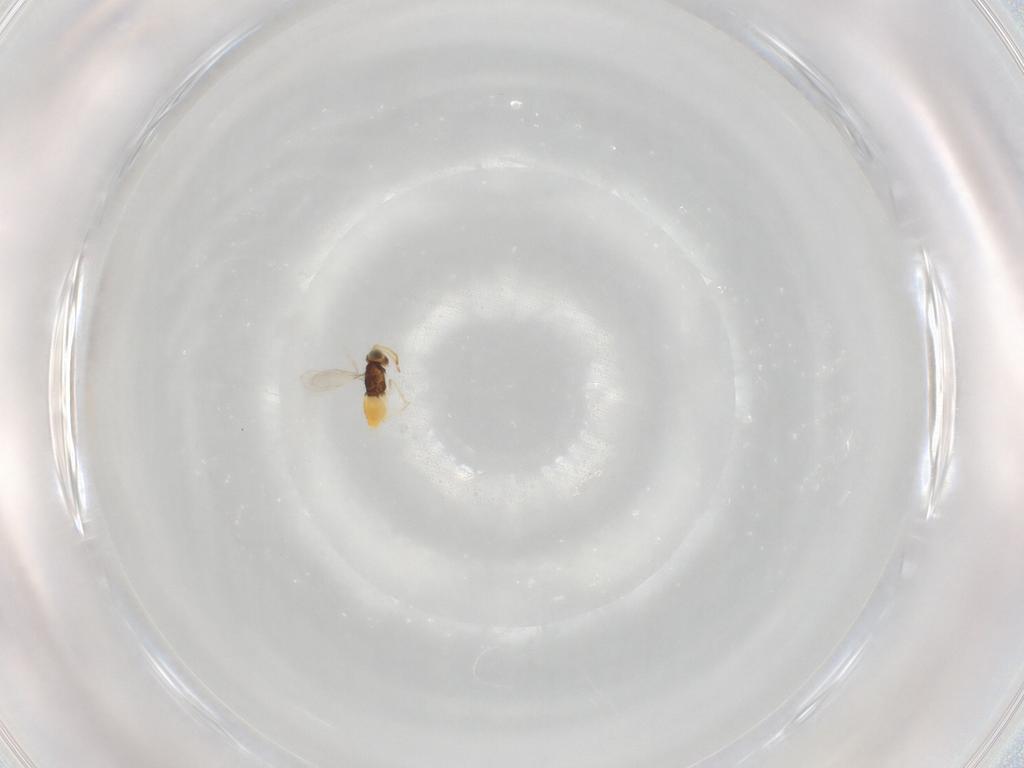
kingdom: Animalia
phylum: Arthropoda
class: Insecta
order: Hymenoptera
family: Aphelinidae
